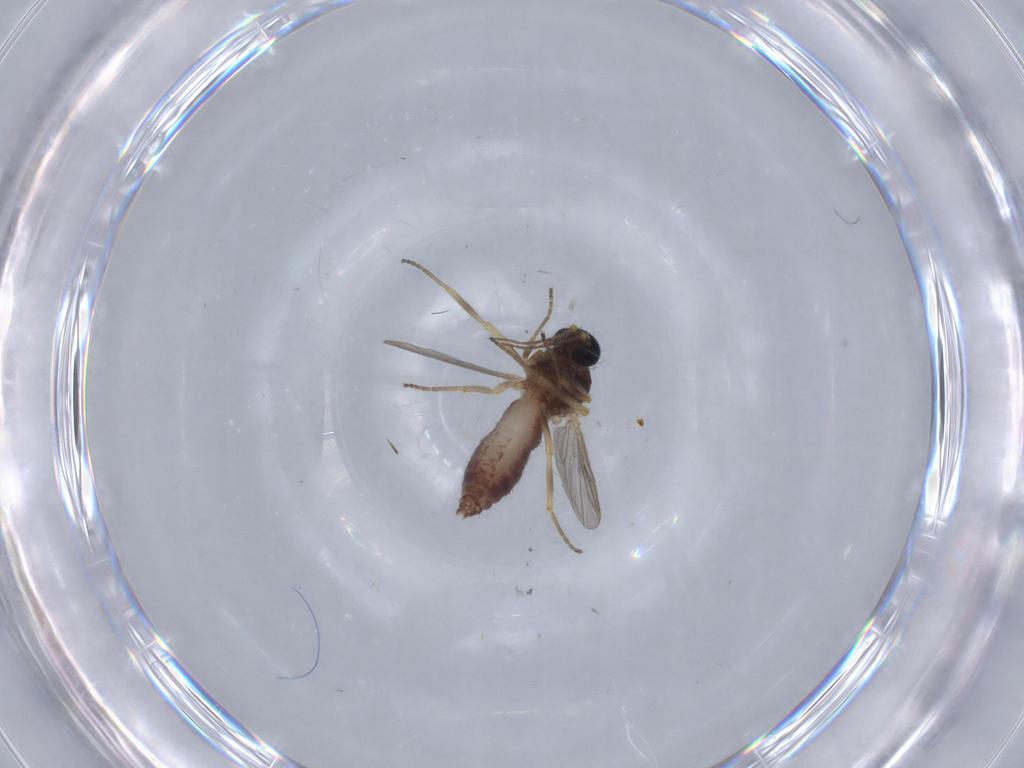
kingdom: Animalia
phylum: Arthropoda
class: Insecta
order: Diptera
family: Ceratopogonidae
